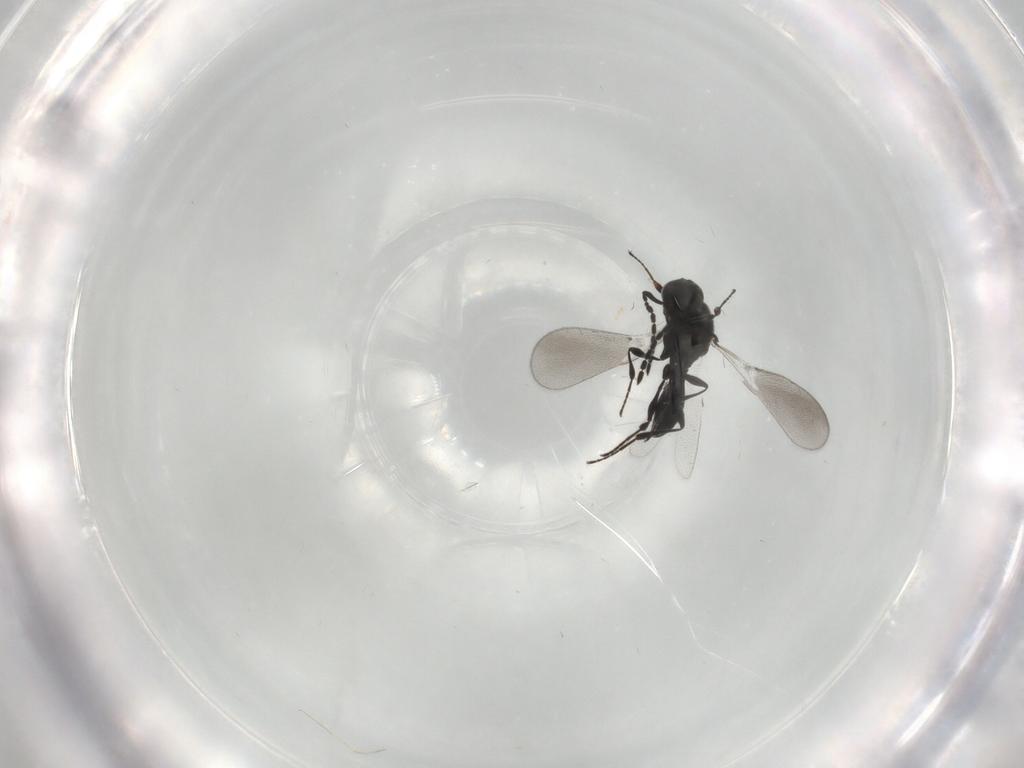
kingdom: Animalia
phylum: Arthropoda
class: Insecta
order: Diptera
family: Mythicomyiidae
